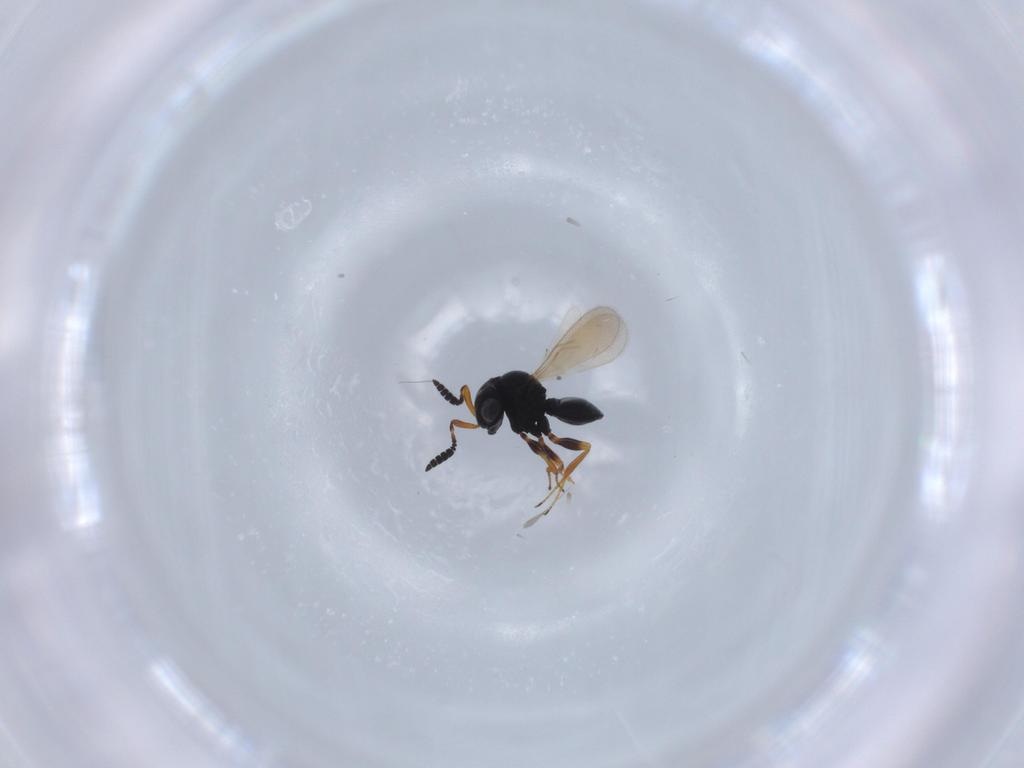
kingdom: Animalia
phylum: Arthropoda
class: Insecta
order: Hymenoptera
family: Scelionidae
